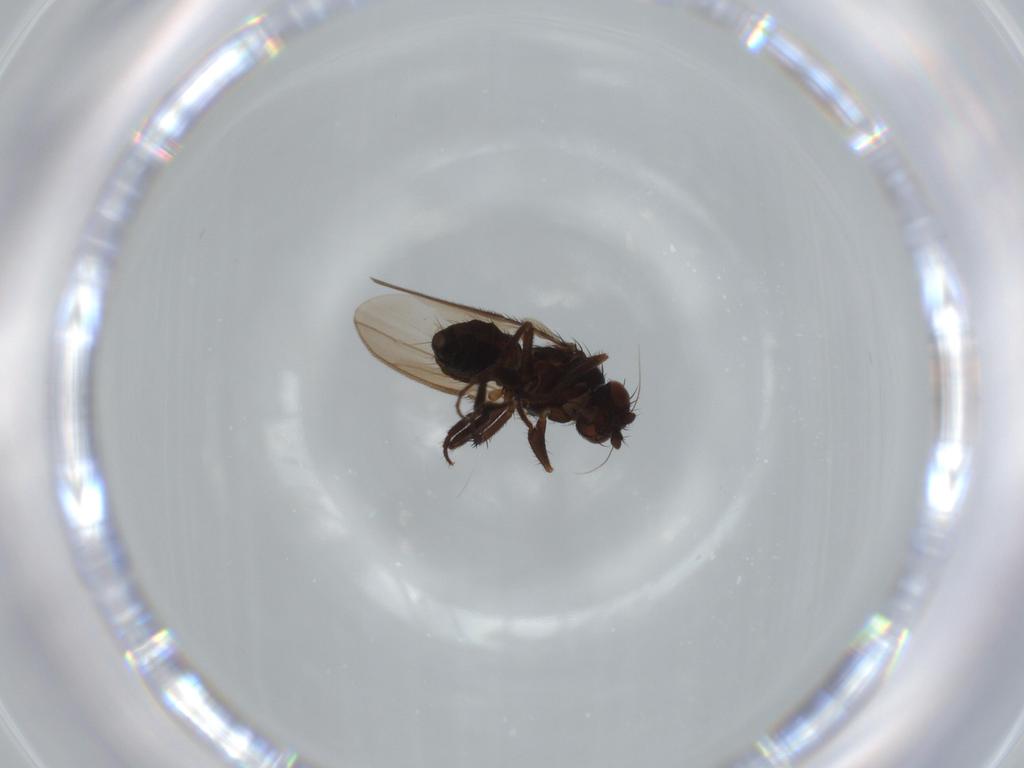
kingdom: Animalia
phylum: Arthropoda
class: Insecta
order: Diptera
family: Sphaeroceridae
